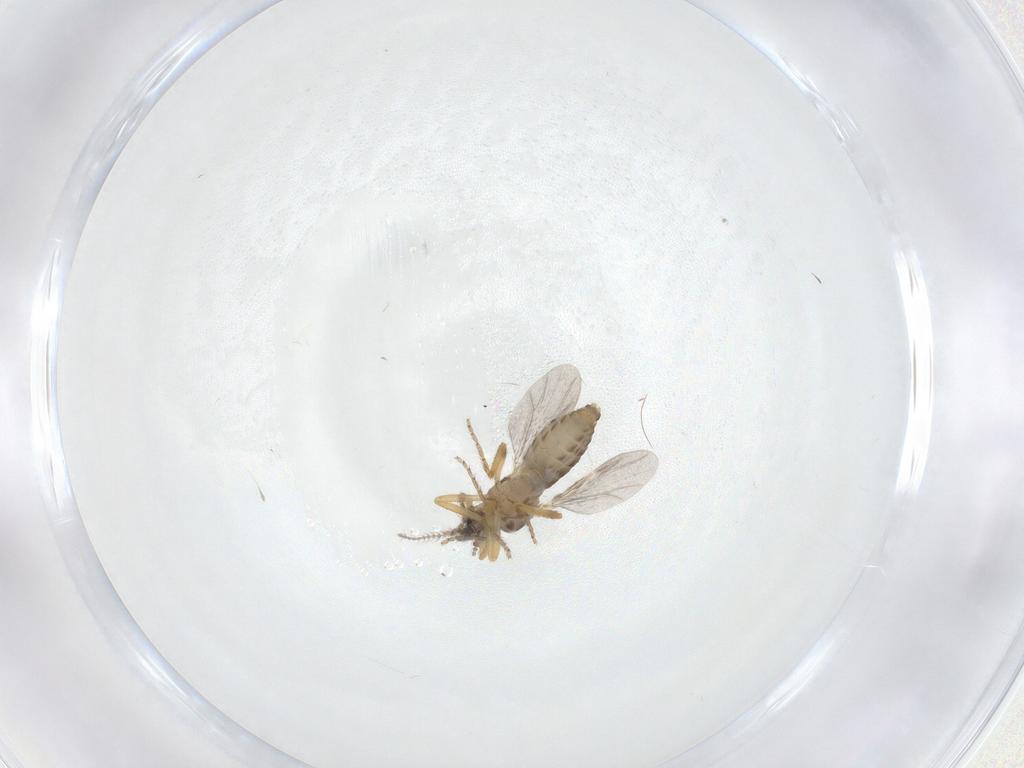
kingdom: Animalia
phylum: Arthropoda
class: Insecta
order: Diptera
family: Ceratopogonidae
